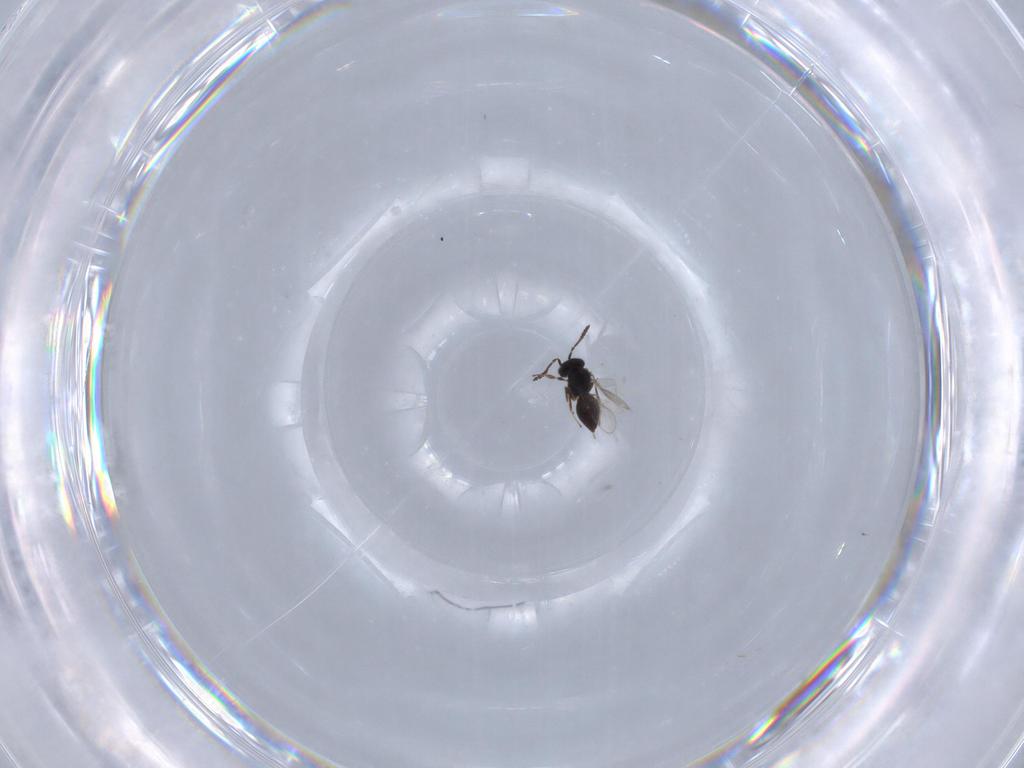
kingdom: Animalia
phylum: Arthropoda
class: Insecta
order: Hymenoptera
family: Scelionidae
